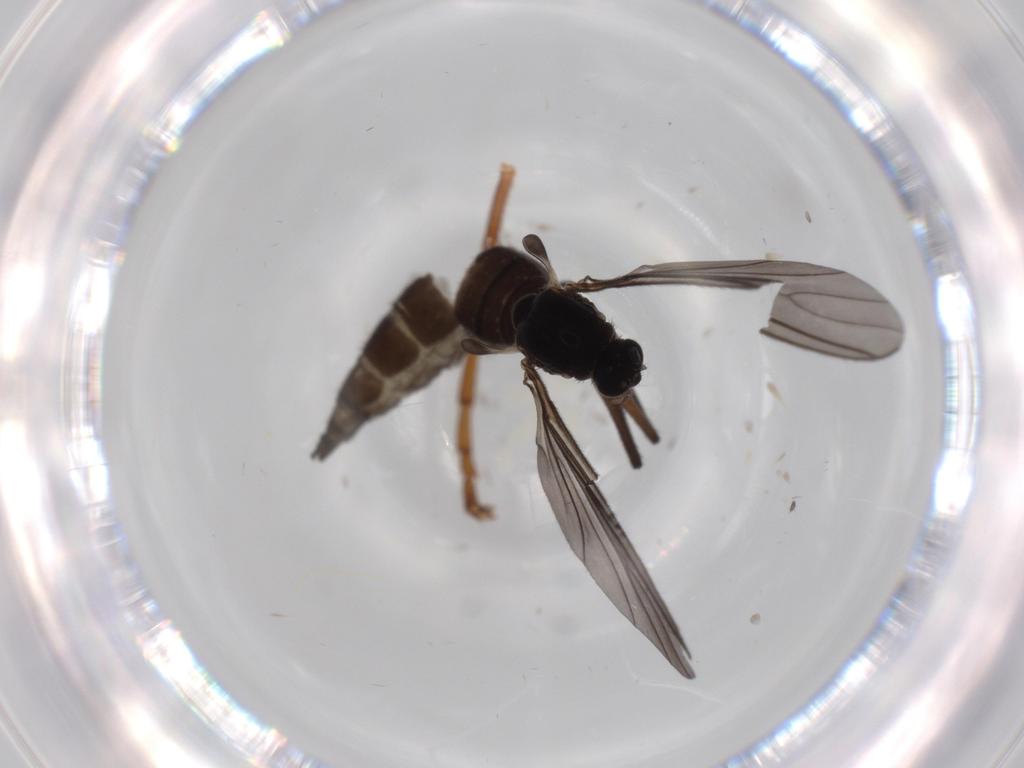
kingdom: Animalia
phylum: Arthropoda
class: Insecta
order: Diptera
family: Sciaridae
